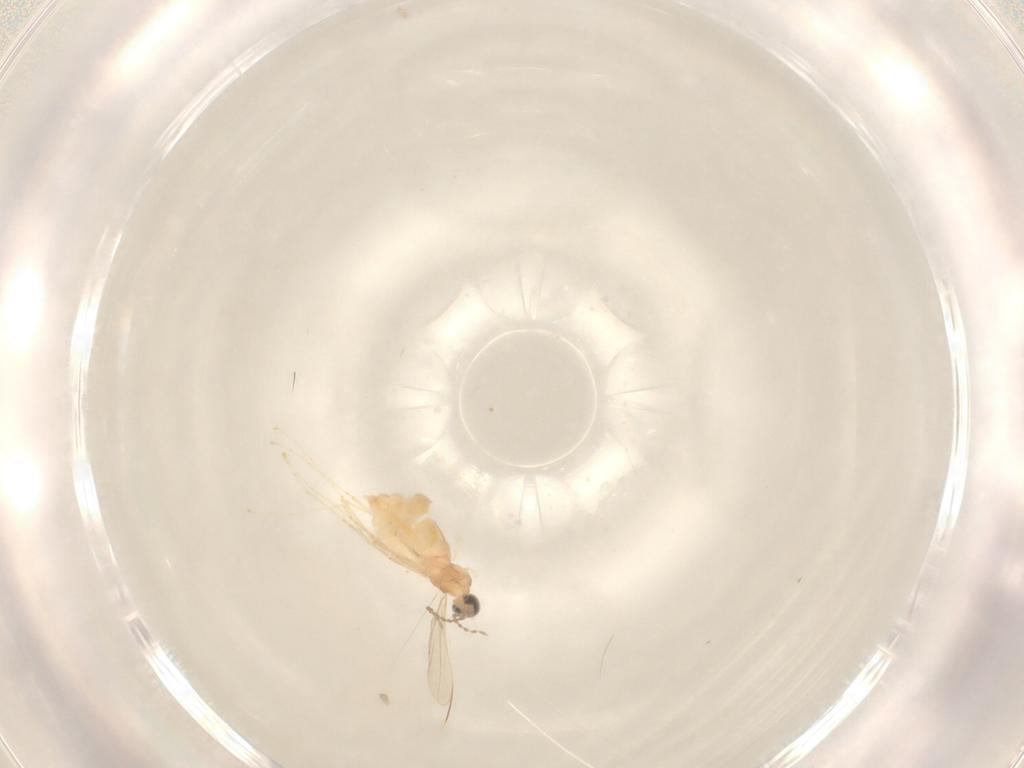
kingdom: Animalia
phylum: Arthropoda
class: Insecta
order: Diptera
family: Cecidomyiidae
